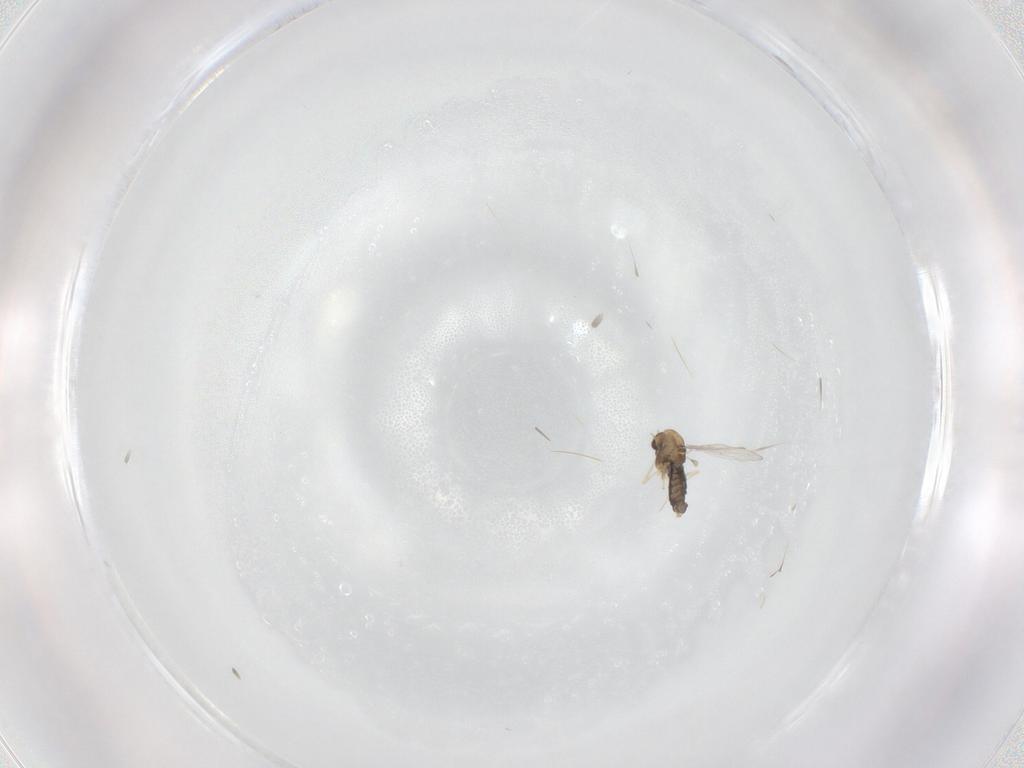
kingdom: Animalia
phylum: Arthropoda
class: Insecta
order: Diptera
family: Chironomidae
